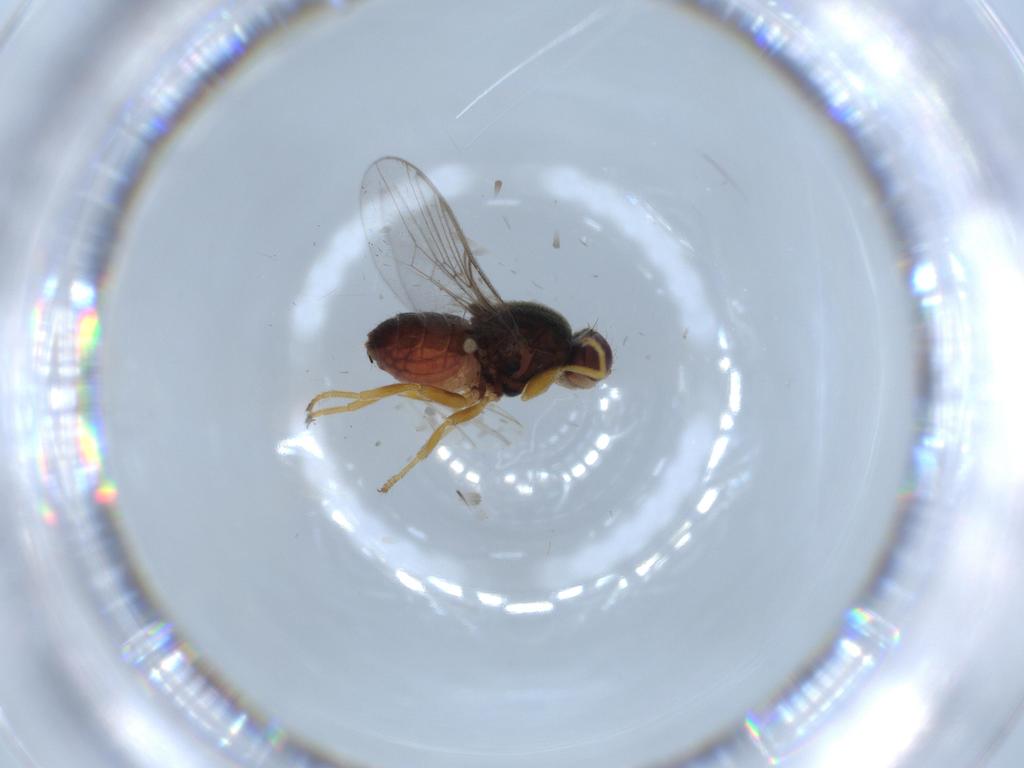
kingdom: Animalia
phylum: Arthropoda
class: Insecta
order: Diptera
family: Chloropidae
